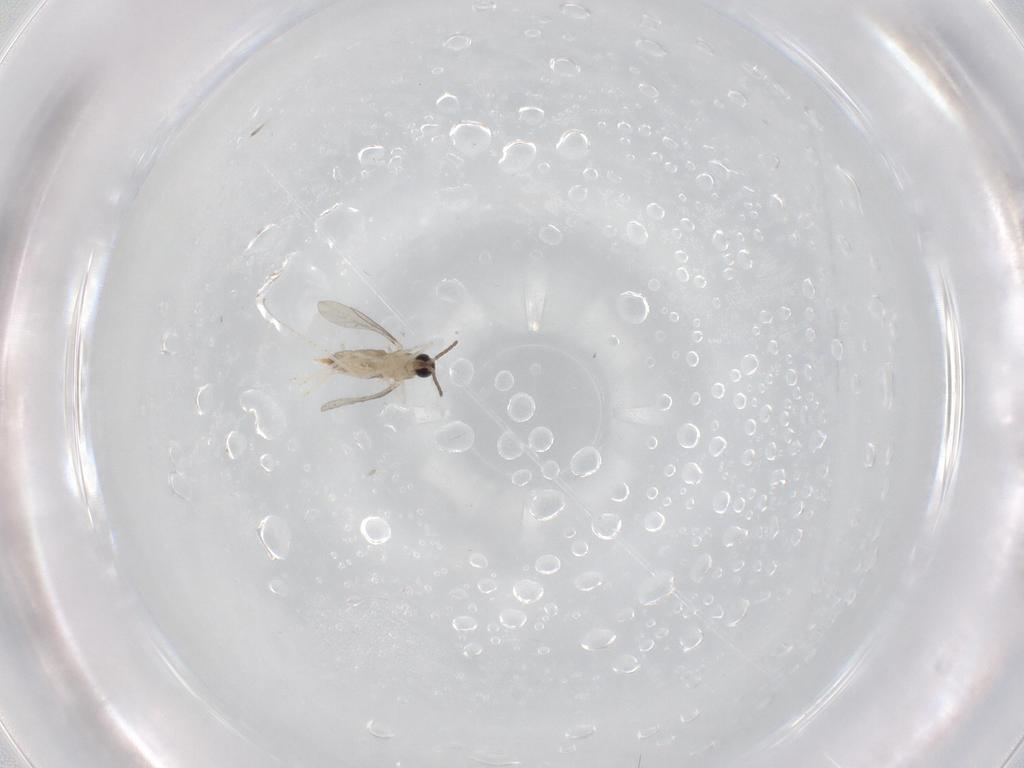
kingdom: Animalia
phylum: Arthropoda
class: Insecta
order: Diptera
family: Cecidomyiidae
